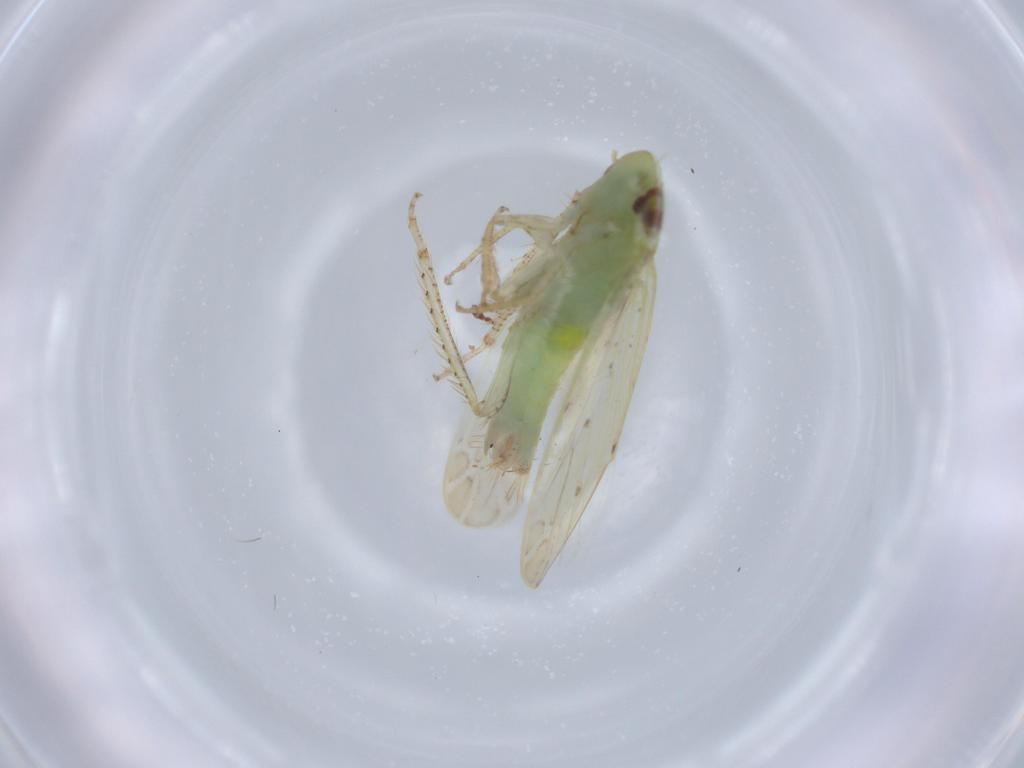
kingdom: Animalia
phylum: Arthropoda
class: Insecta
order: Hemiptera
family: Cicadellidae
